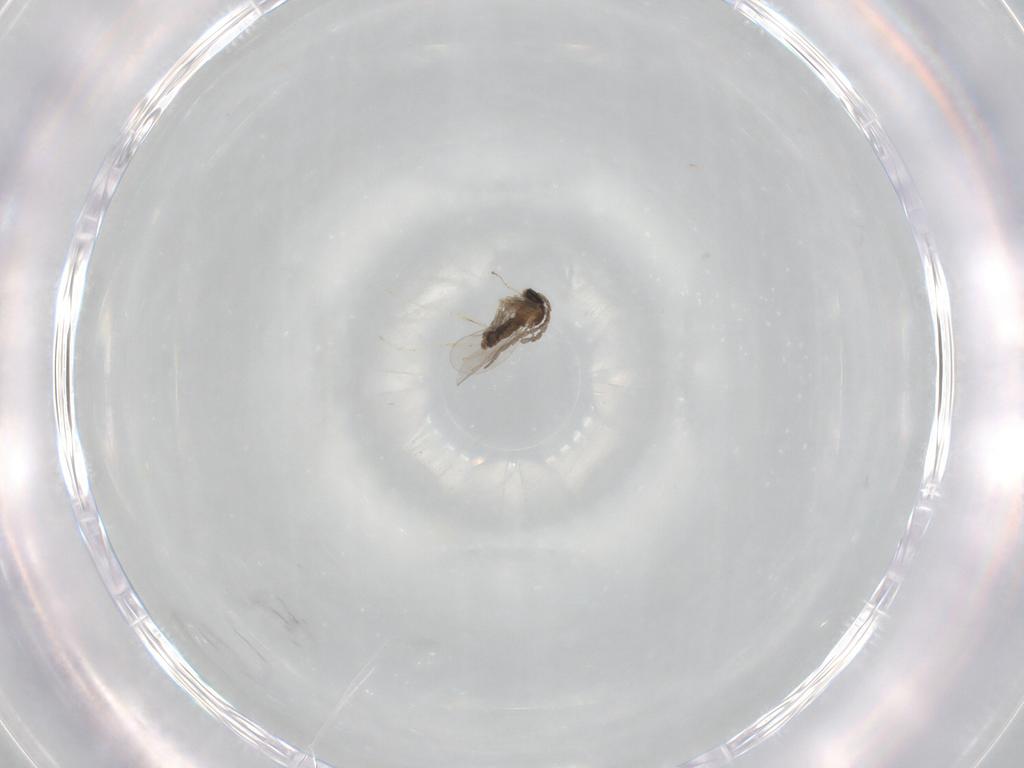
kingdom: Animalia
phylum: Arthropoda
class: Insecta
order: Diptera
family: Cecidomyiidae
